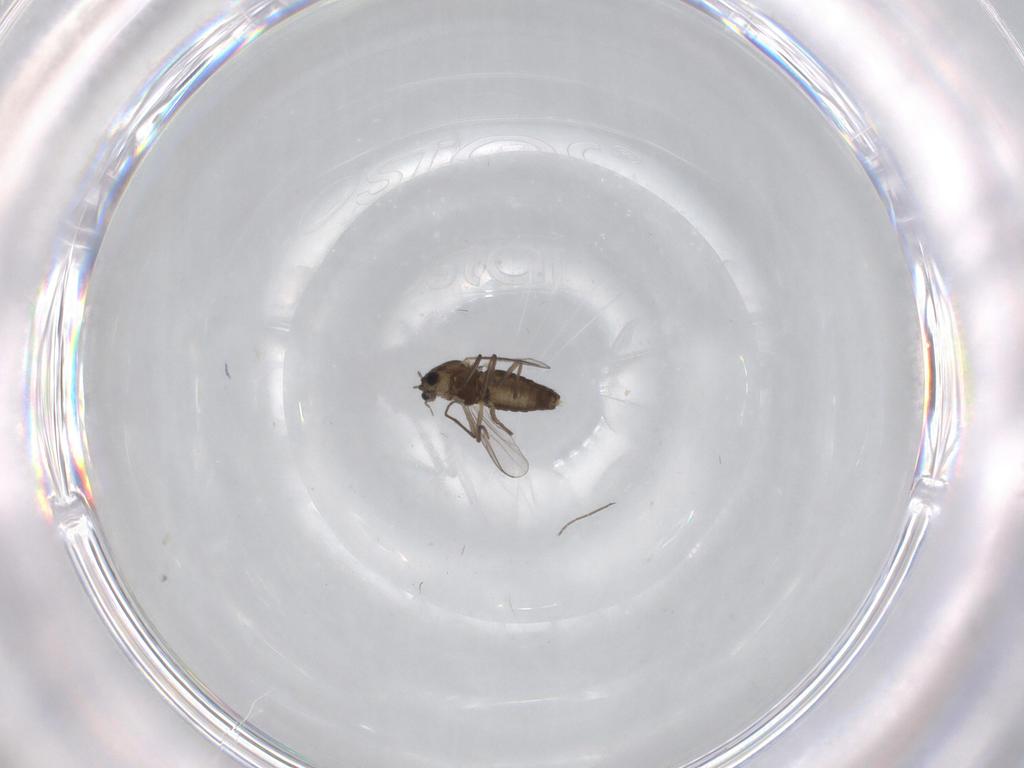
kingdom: Animalia
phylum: Arthropoda
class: Insecta
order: Diptera
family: Chironomidae
